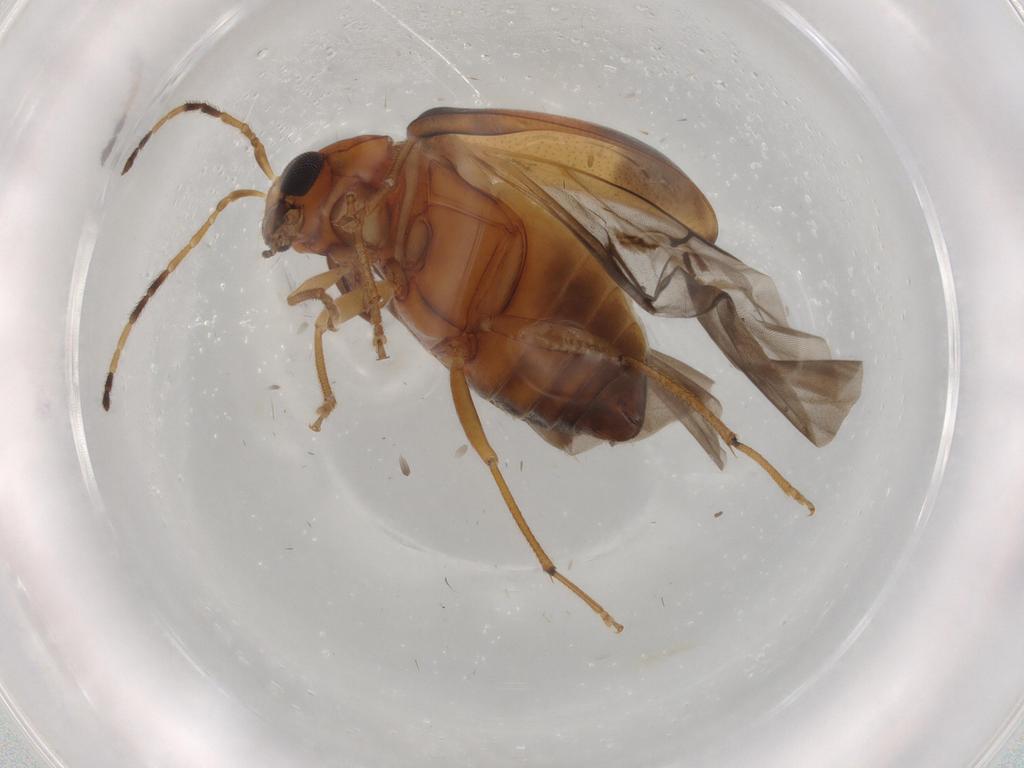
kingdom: Animalia
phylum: Arthropoda
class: Insecta
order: Coleoptera
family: Chrysomelidae
